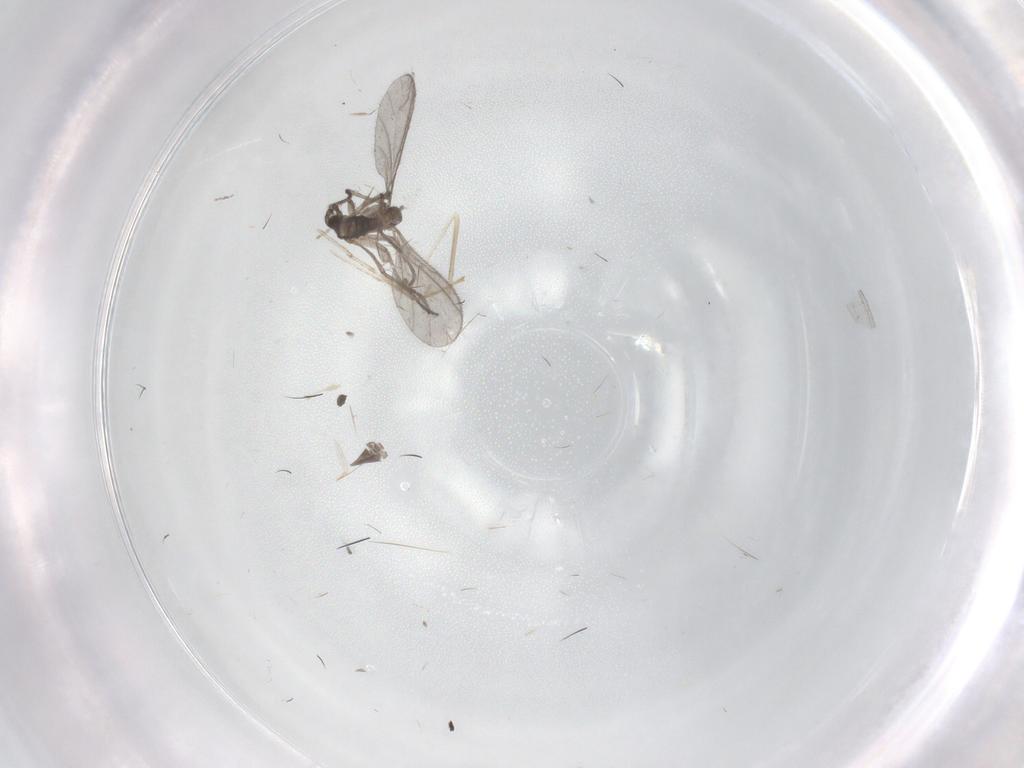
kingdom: Animalia
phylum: Arthropoda
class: Insecta
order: Diptera
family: Sciaridae
